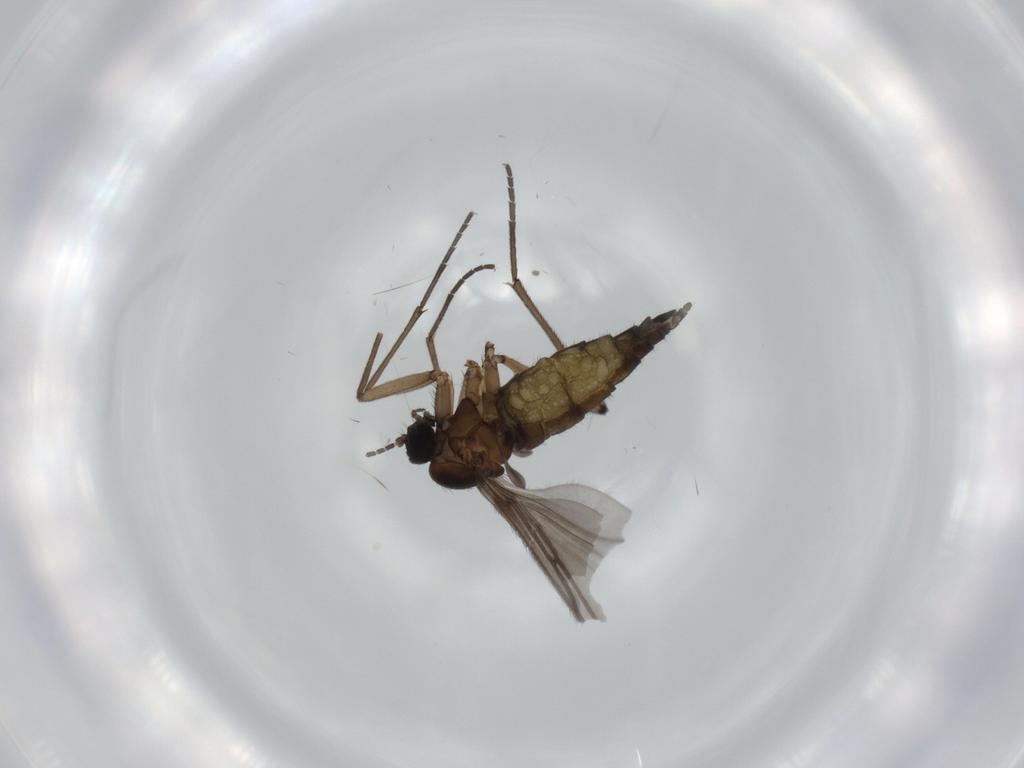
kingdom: Animalia
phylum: Arthropoda
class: Insecta
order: Diptera
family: Sciaridae
